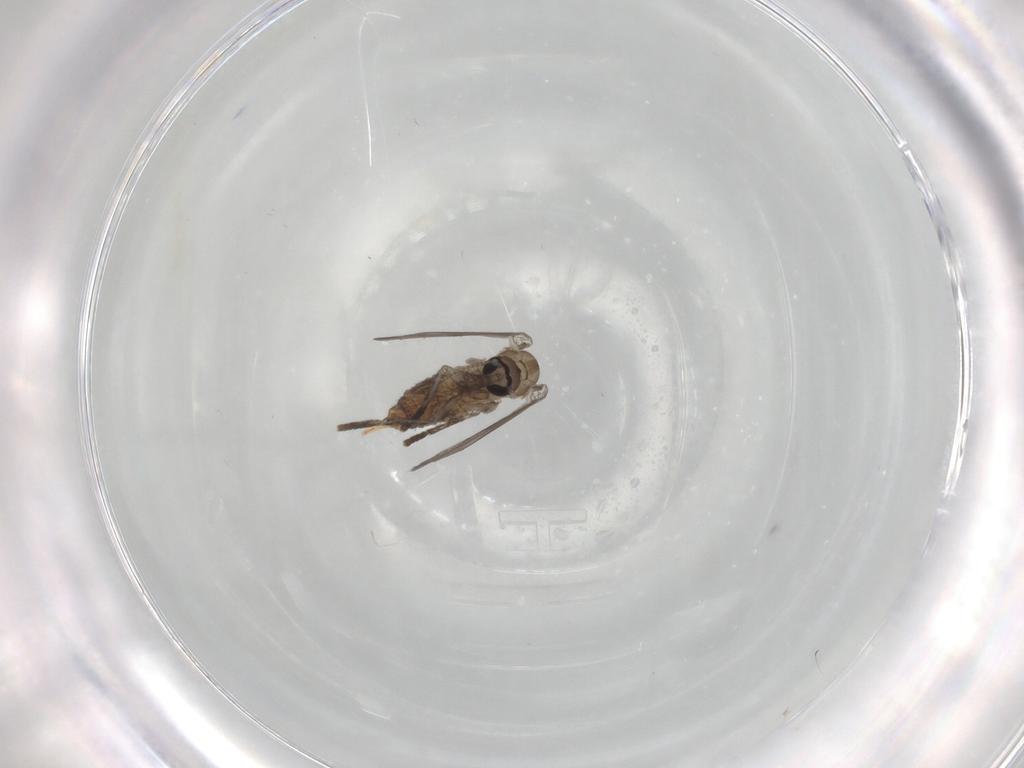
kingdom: Animalia
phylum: Arthropoda
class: Insecta
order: Diptera
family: Psychodidae
